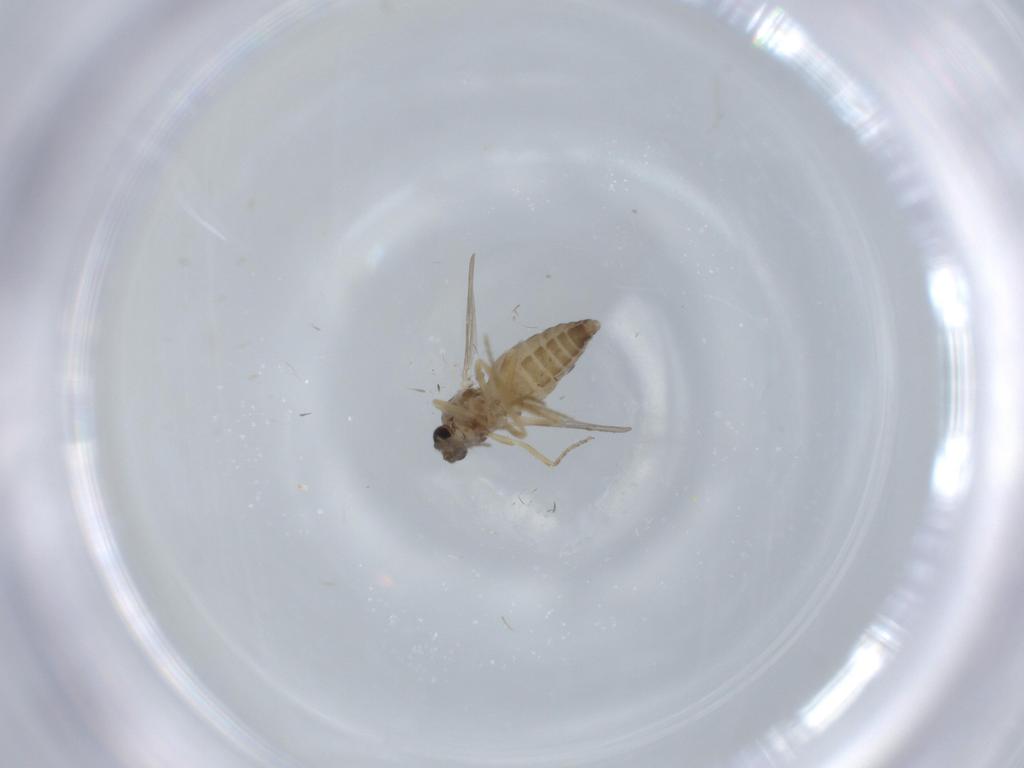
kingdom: Animalia
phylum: Arthropoda
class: Insecta
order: Diptera
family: Ceratopogonidae
